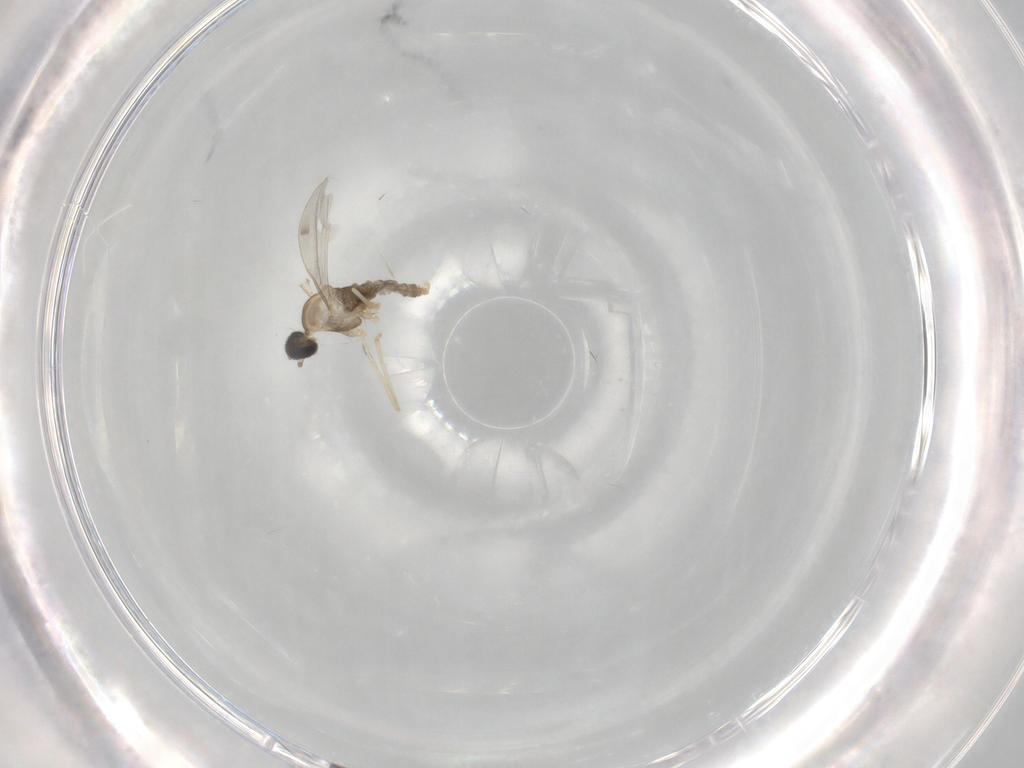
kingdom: Animalia
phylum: Arthropoda
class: Insecta
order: Diptera
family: Cecidomyiidae
